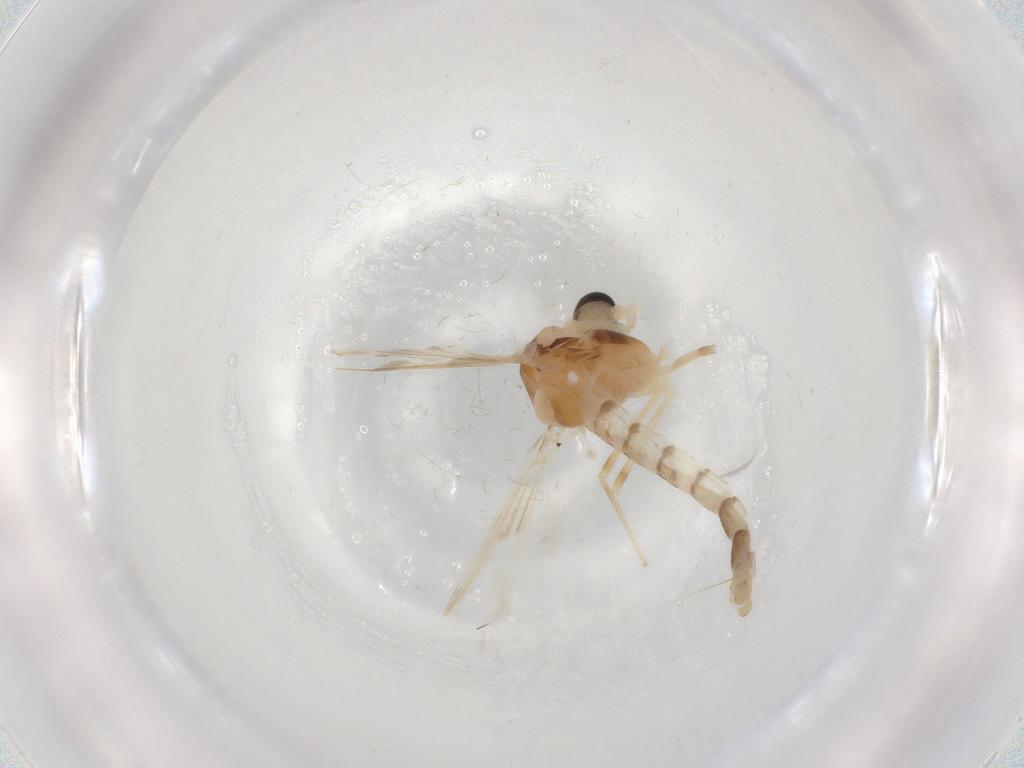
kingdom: Animalia
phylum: Arthropoda
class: Insecta
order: Diptera
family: Chironomidae
